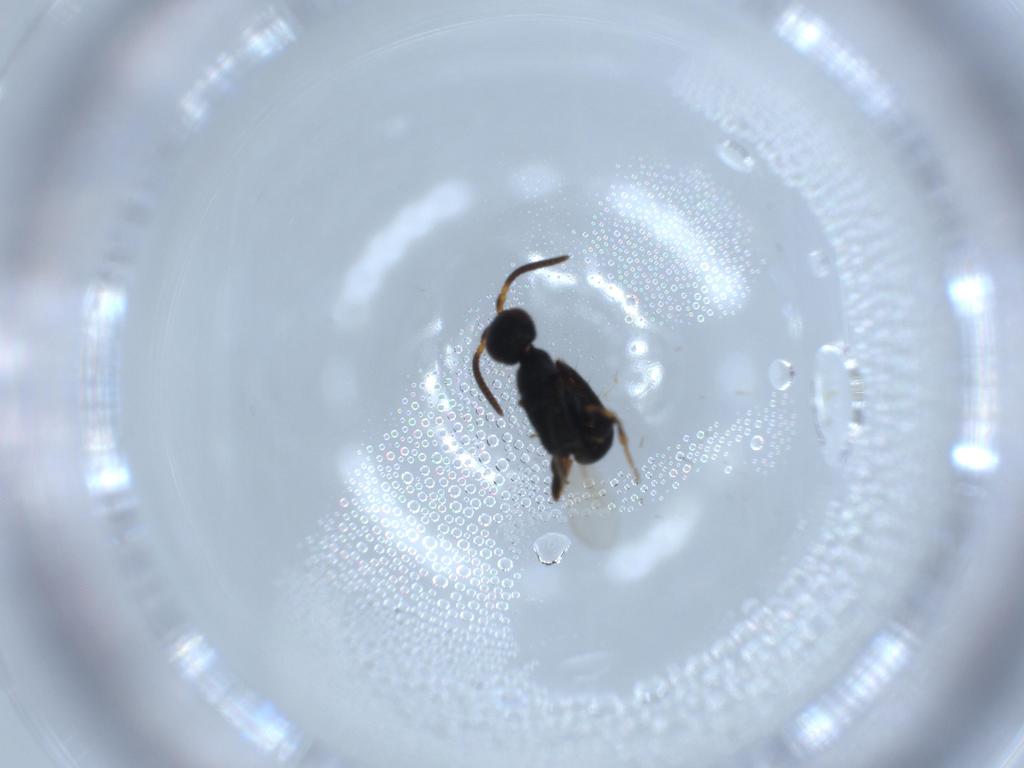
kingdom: Animalia
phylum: Arthropoda
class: Insecta
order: Hymenoptera
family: Bethylidae
